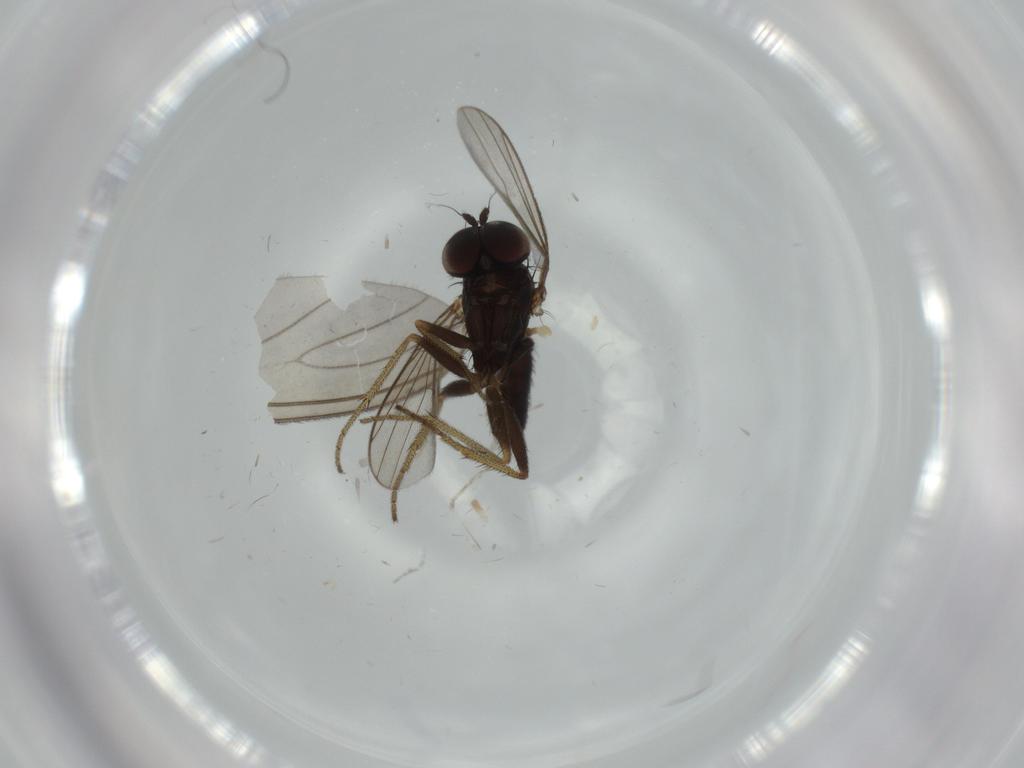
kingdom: Animalia
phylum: Arthropoda
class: Insecta
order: Diptera
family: Dolichopodidae
